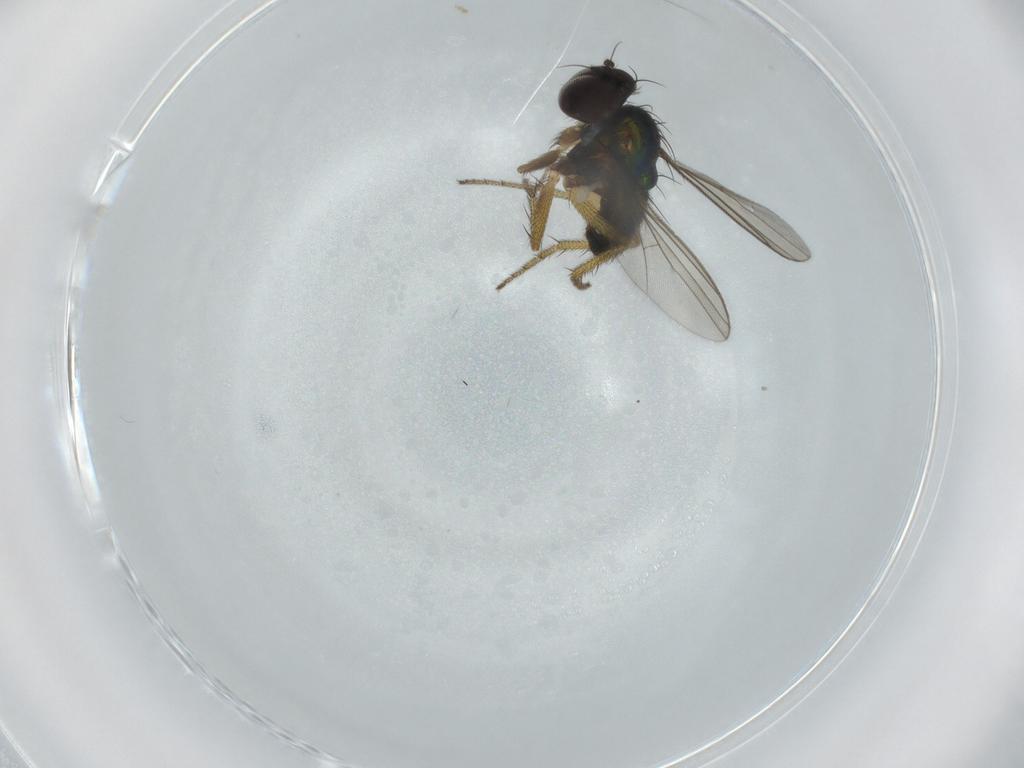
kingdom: Animalia
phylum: Arthropoda
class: Insecta
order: Diptera
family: Dolichopodidae
